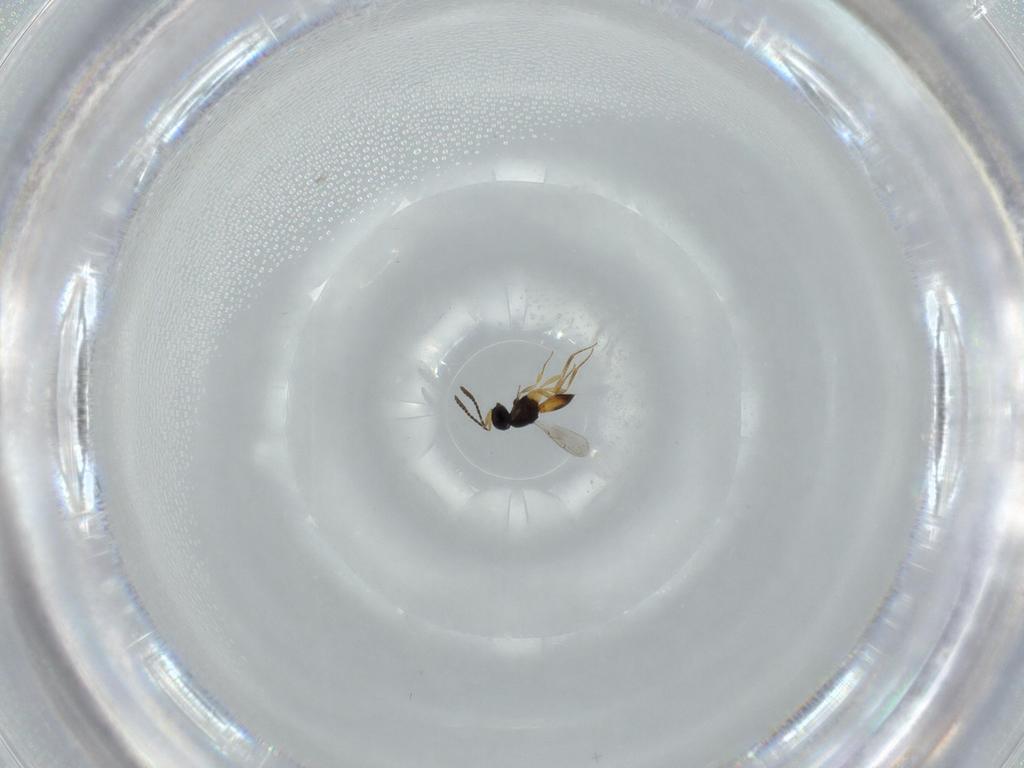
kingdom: Animalia
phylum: Arthropoda
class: Insecta
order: Hymenoptera
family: Scelionidae
